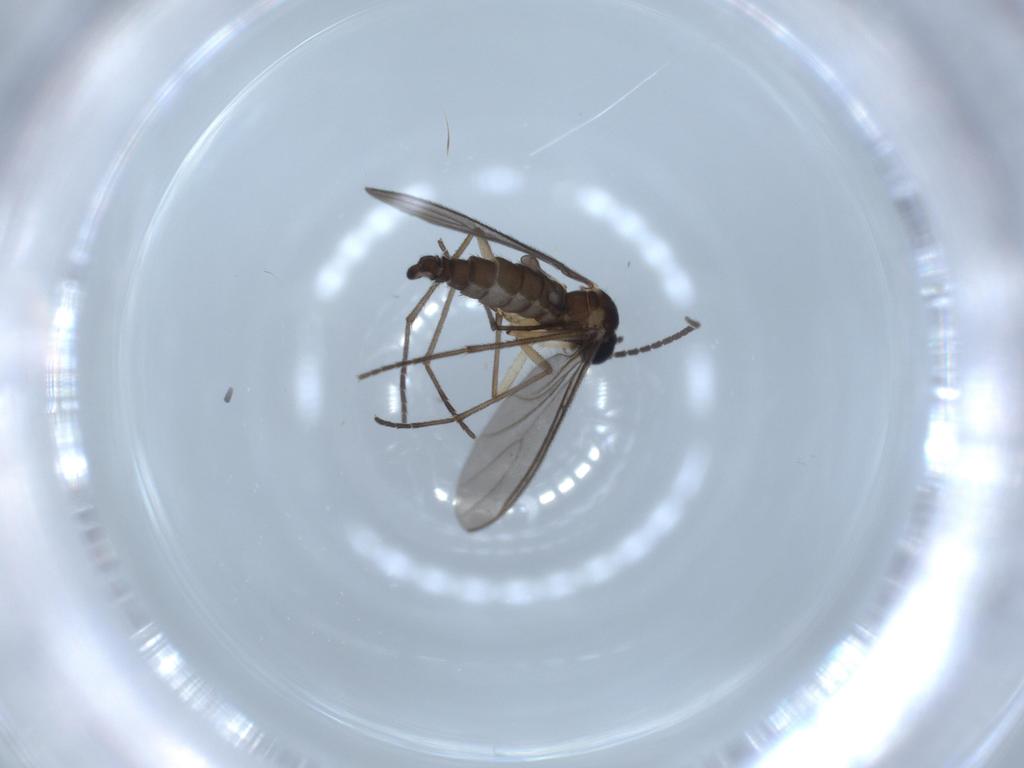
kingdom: Animalia
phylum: Arthropoda
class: Insecta
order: Diptera
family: Sciaridae
